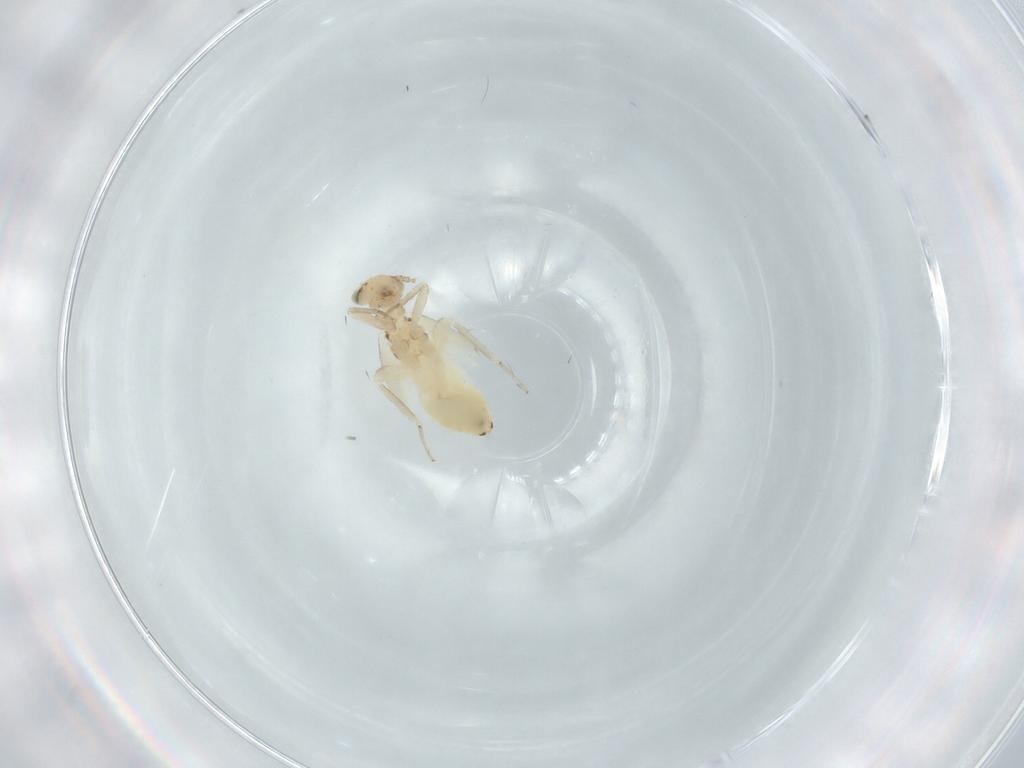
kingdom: Animalia
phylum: Arthropoda
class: Insecta
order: Psocodea
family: Lepidopsocidae
